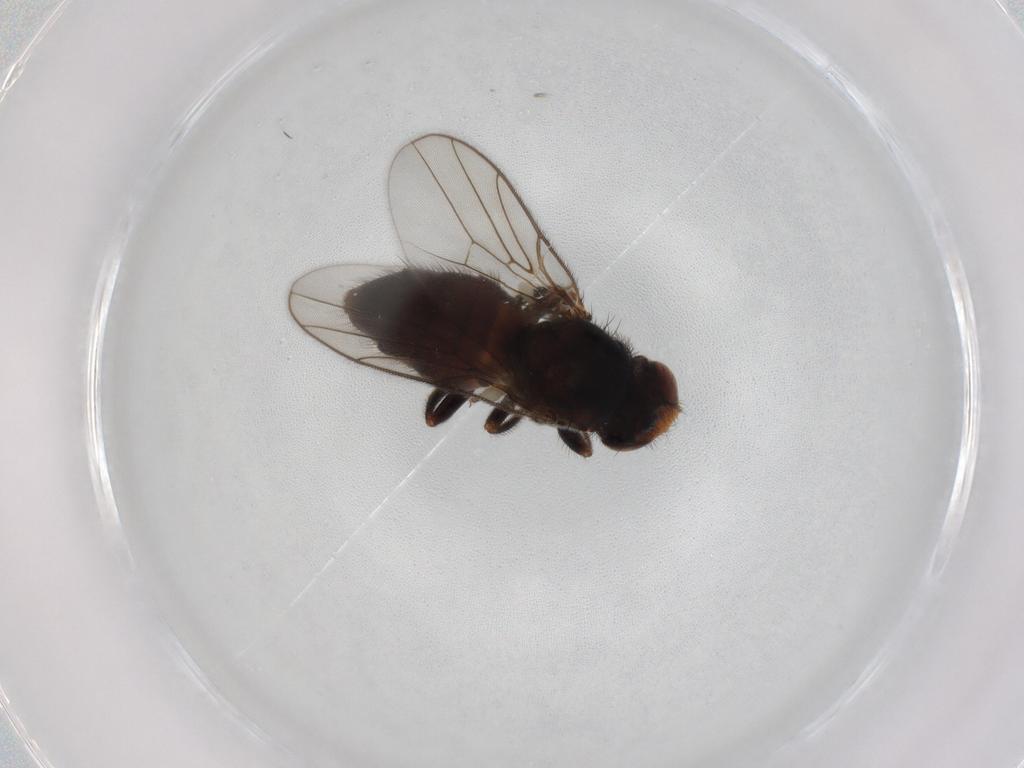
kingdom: Animalia
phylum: Arthropoda
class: Insecta
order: Diptera
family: Chloropidae
